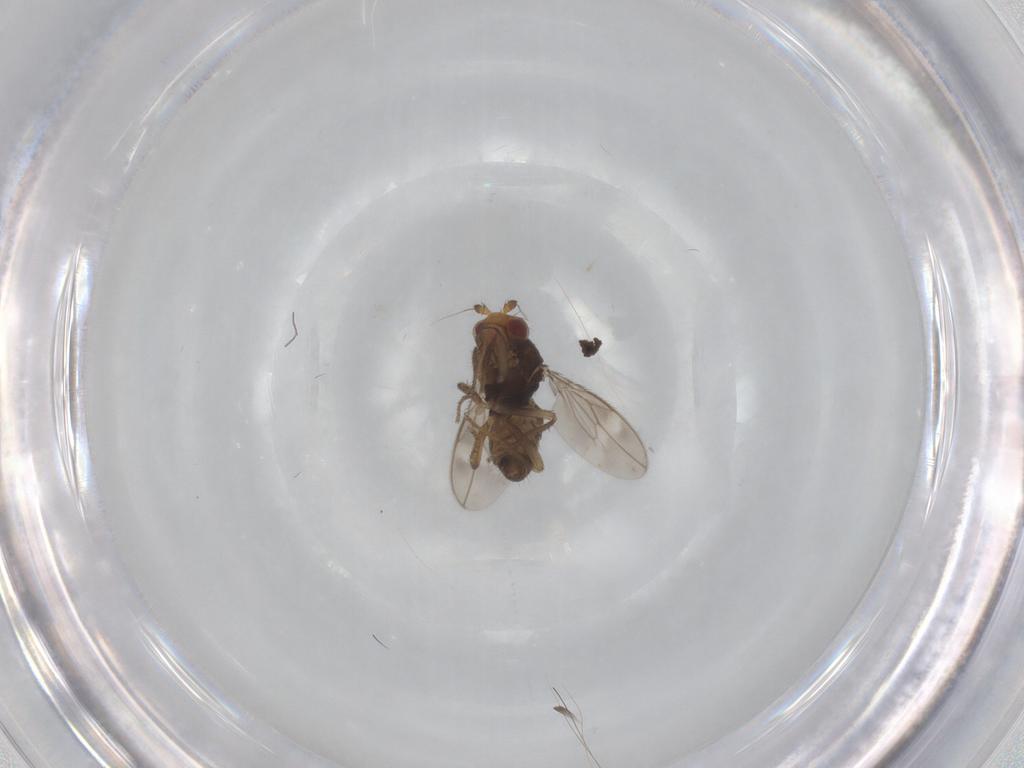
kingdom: Animalia
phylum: Arthropoda
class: Insecta
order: Diptera
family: Sphaeroceridae
